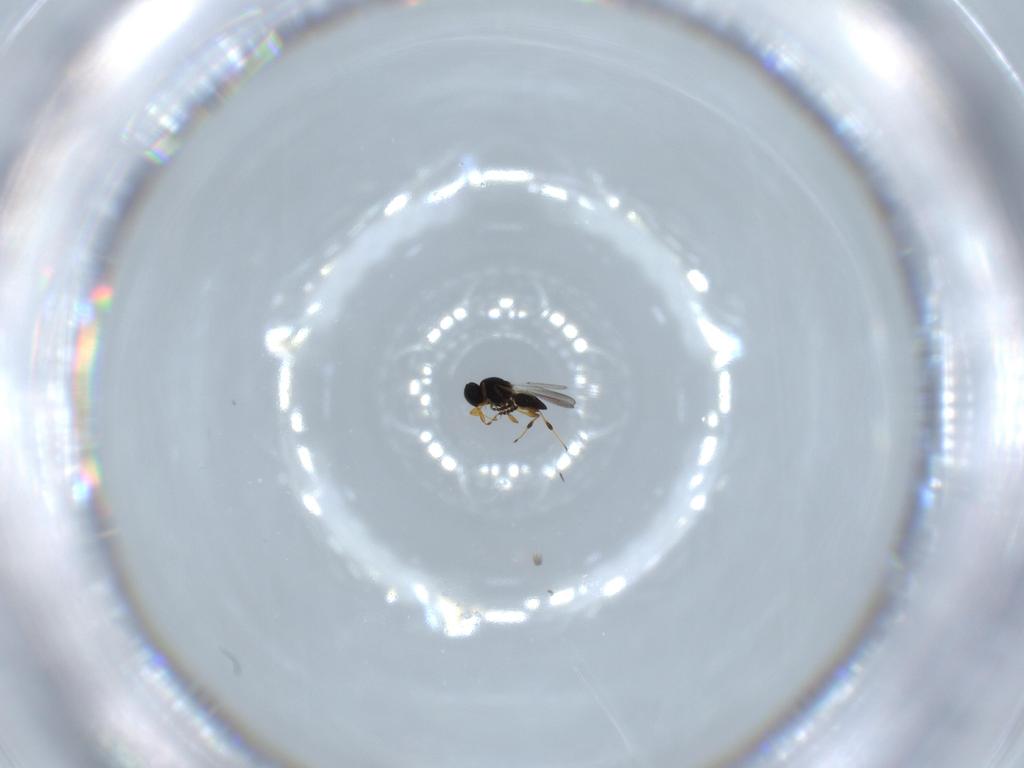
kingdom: Animalia
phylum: Arthropoda
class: Insecta
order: Hymenoptera
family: Platygastridae
